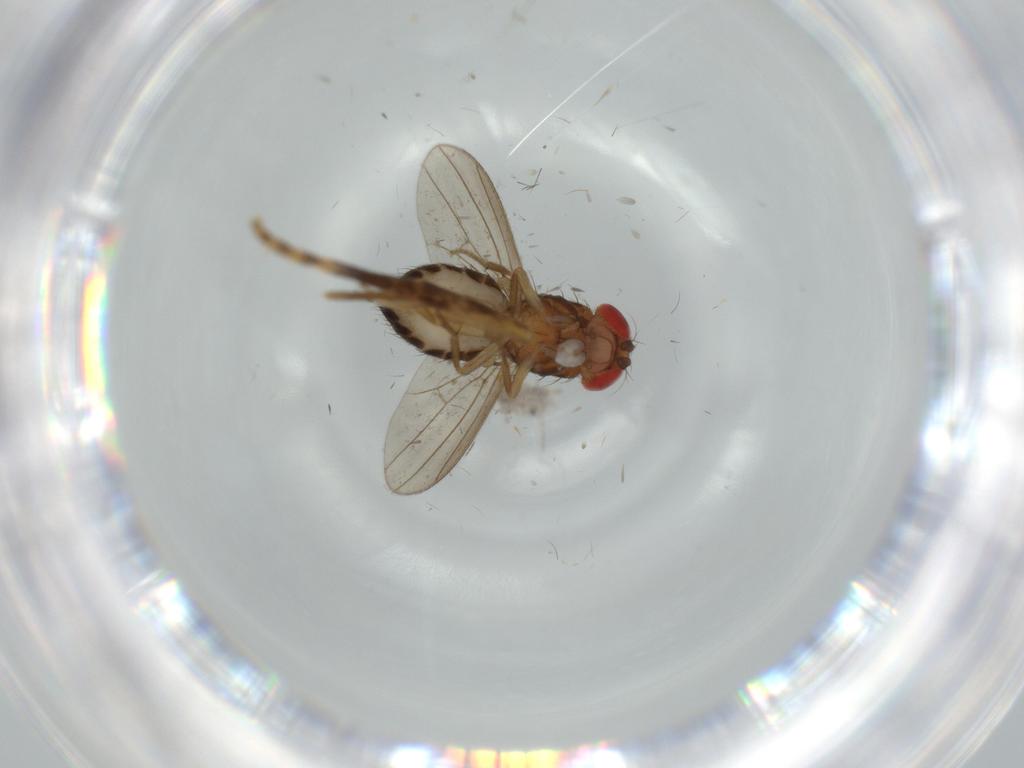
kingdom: Animalia
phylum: Arthropoda
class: Insecta
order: Diptera
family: Drosophilidae
